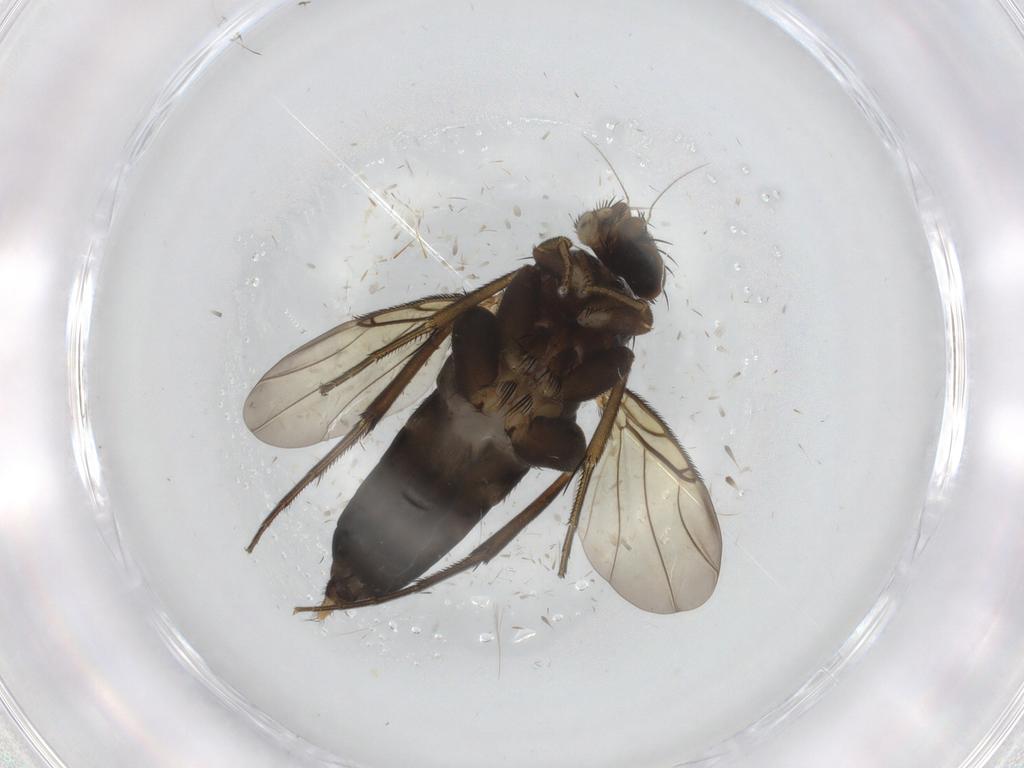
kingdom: Animalia
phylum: Arthropoda
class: Insecta
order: Diptera
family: Phoridae
